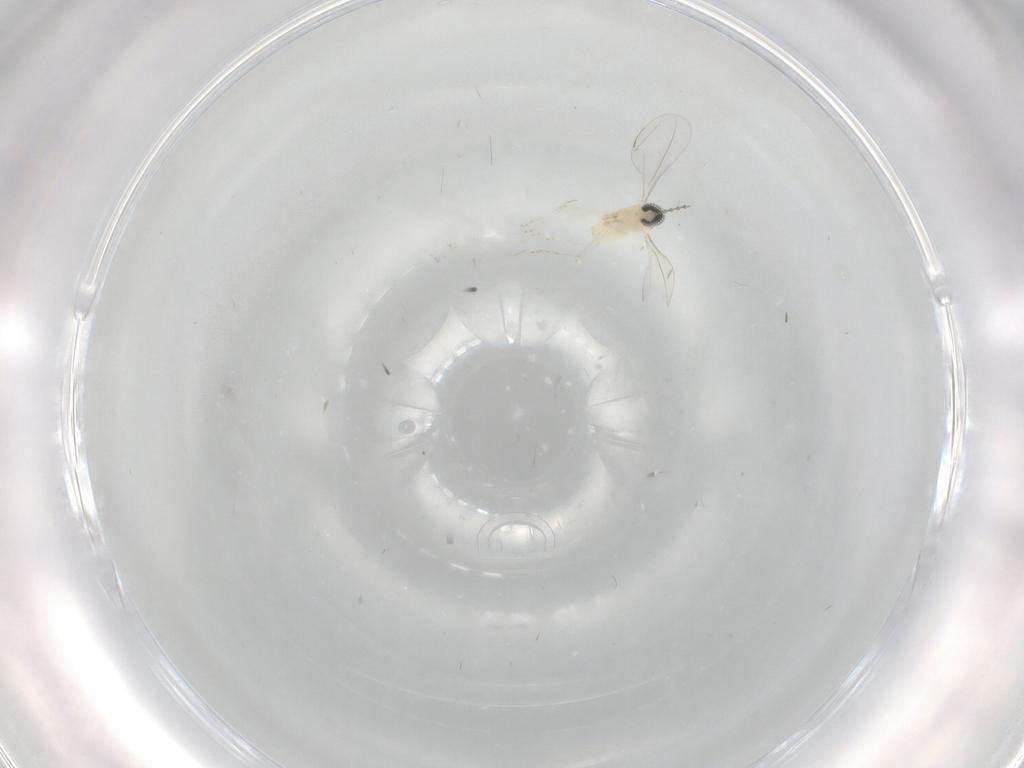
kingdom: Animalia
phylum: Arthropoda
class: Insecta
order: Diptera
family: Cecidomyiidae
